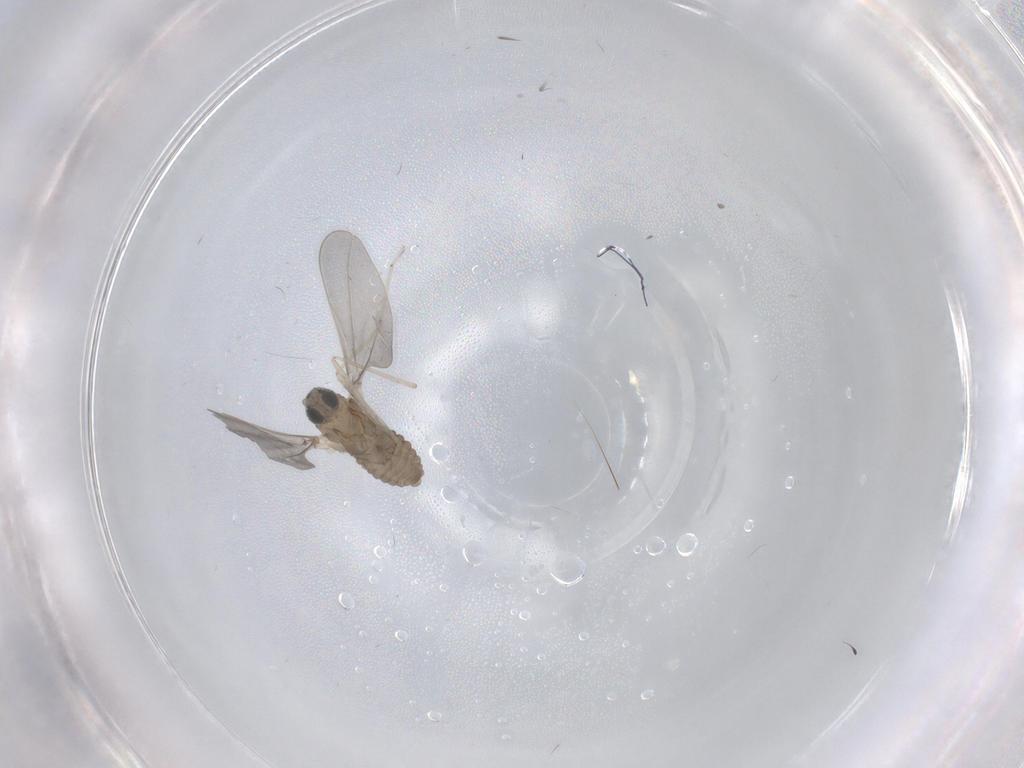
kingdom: Animalia
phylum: Arthropoda
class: Insecta
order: Diptera
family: Cecidomyiidae
